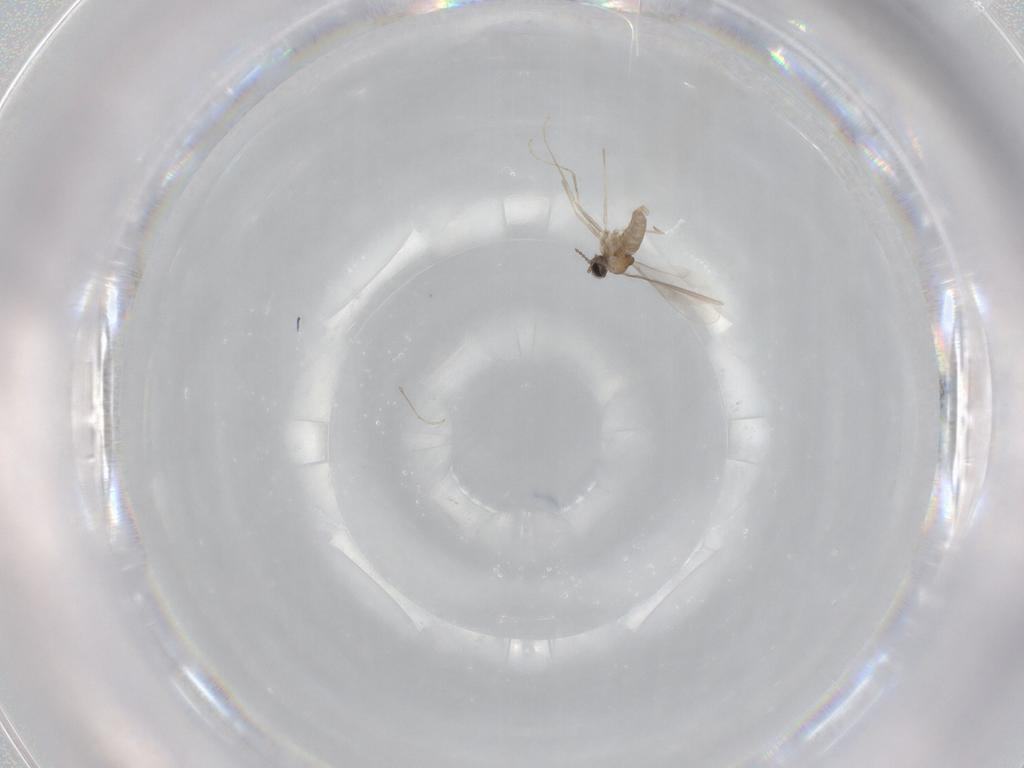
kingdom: Animalia
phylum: Arthropoda
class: Insecta
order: Diptera
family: Cecidomyiidae
